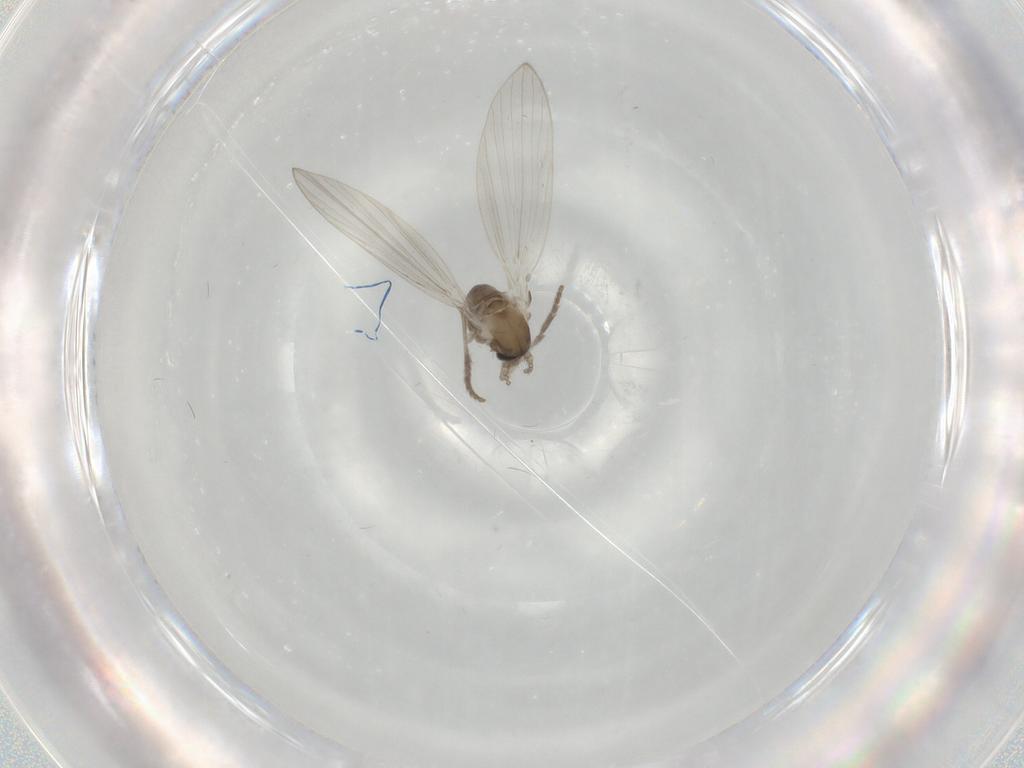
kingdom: Animalia
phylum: Arthropoda
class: Insecta
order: Diptera
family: Psychodidae
